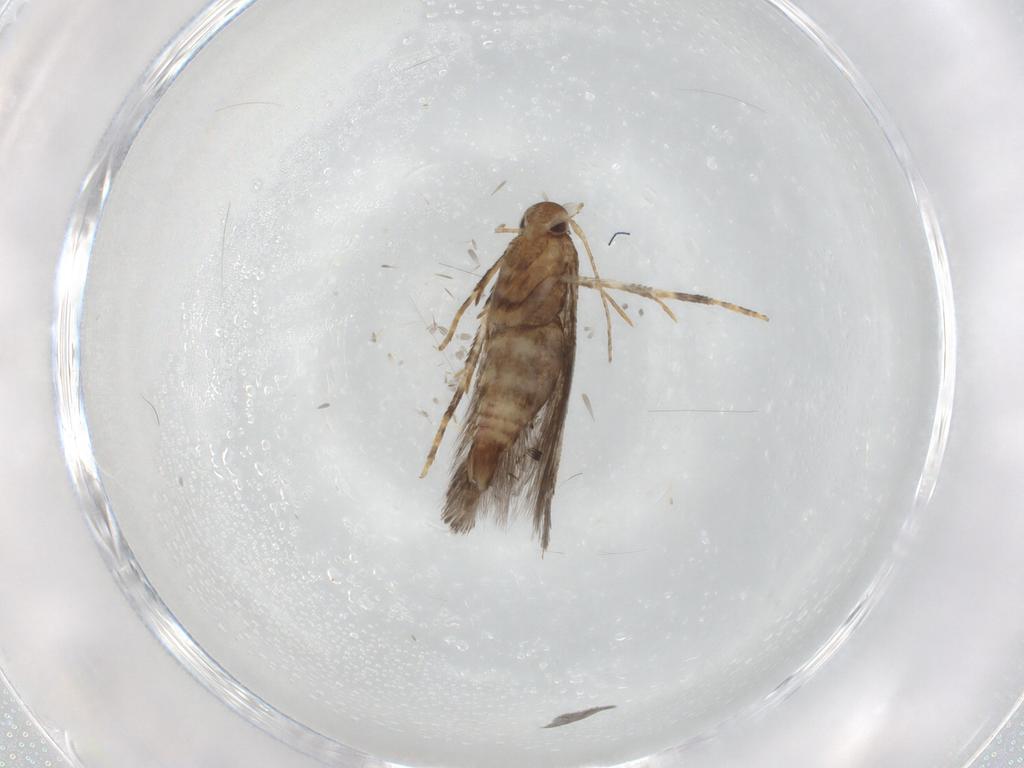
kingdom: Animalia
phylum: Arthropoda
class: Insecta
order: Lepidoptera
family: Erebidae
